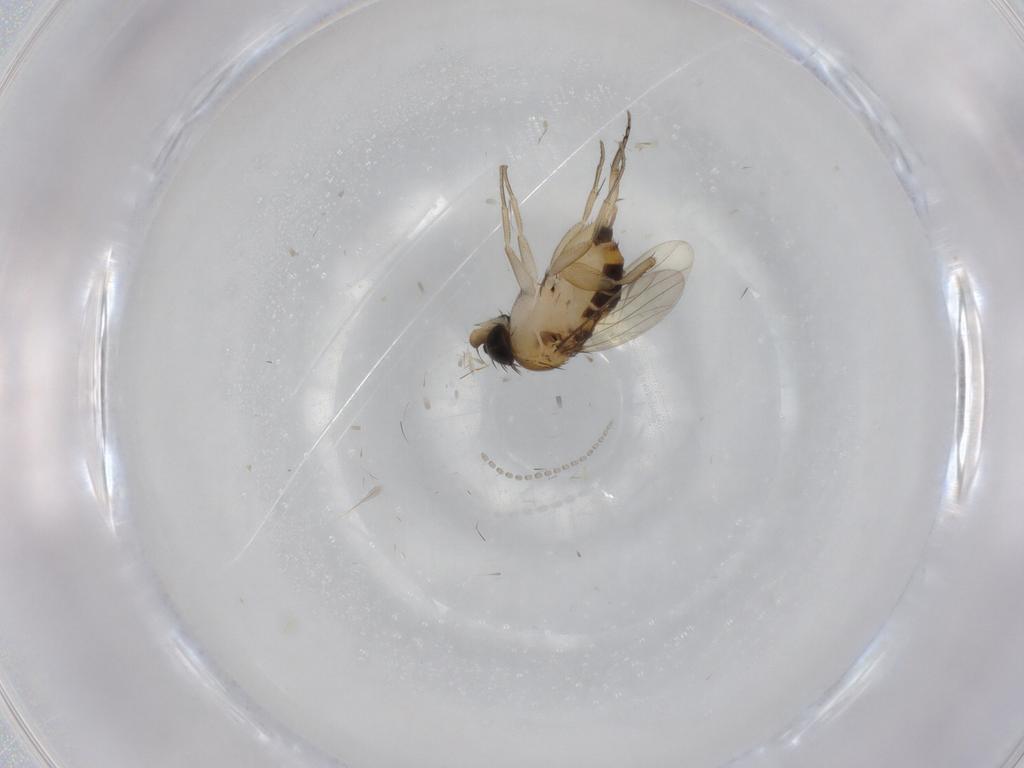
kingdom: Animalia
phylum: Arthropoda
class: Insecta
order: Diptera
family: Phoridae
